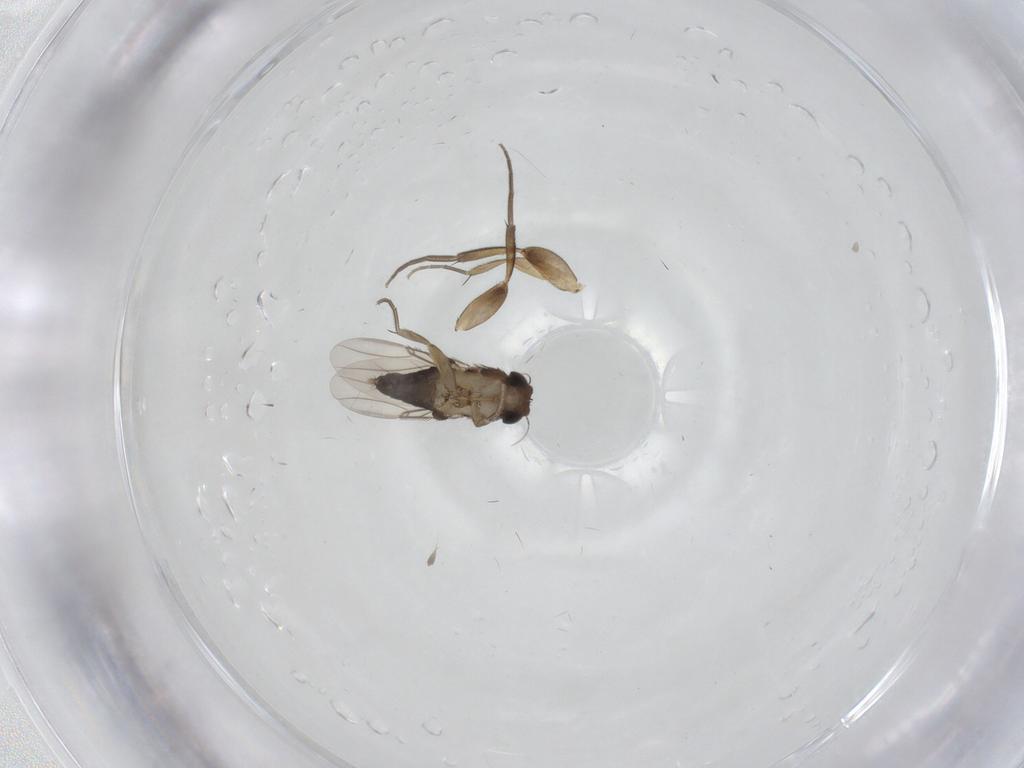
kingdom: Animalia
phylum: Arthropoda
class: Insecta
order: Diptera
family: Phoridae
